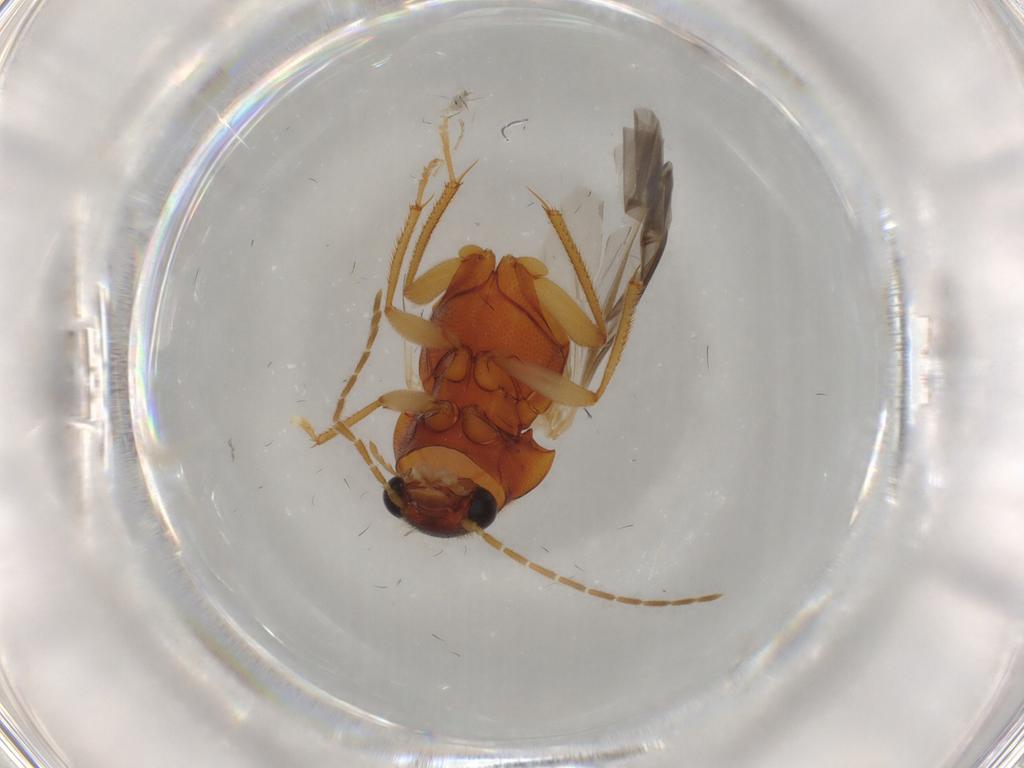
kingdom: Animalia
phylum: Arthropoda
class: Insecta
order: Coleoptera
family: Ptilodactylidae
